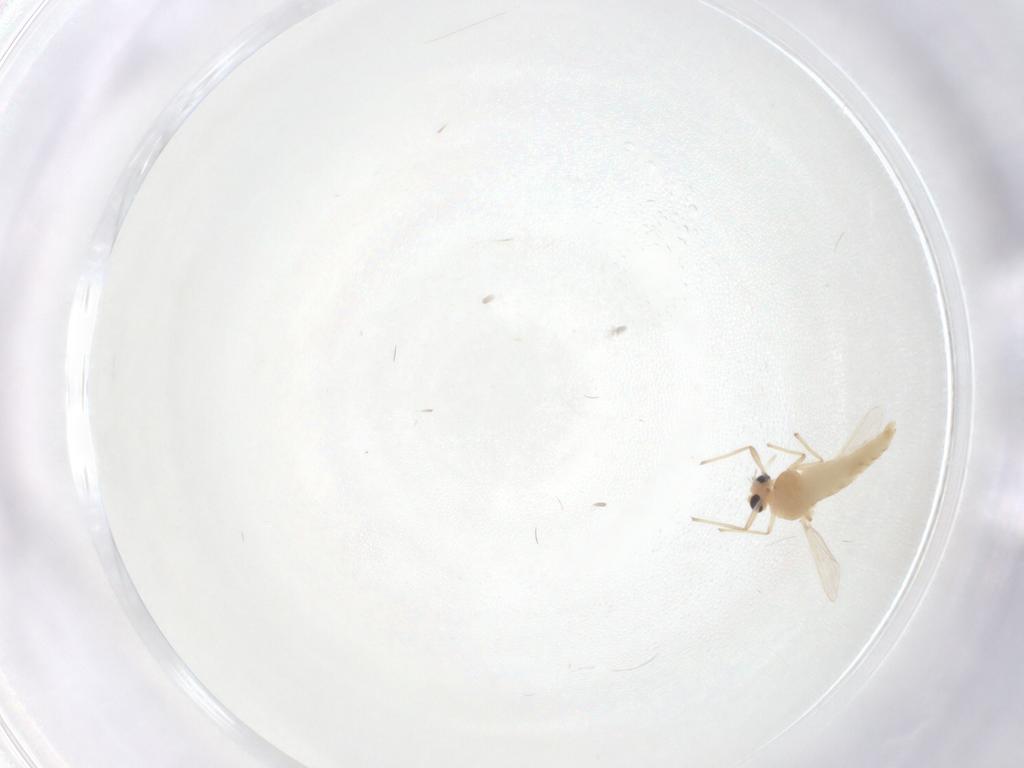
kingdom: Animalia
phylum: Arthropoda
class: Insecta
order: Diptera
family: Chironomidae
